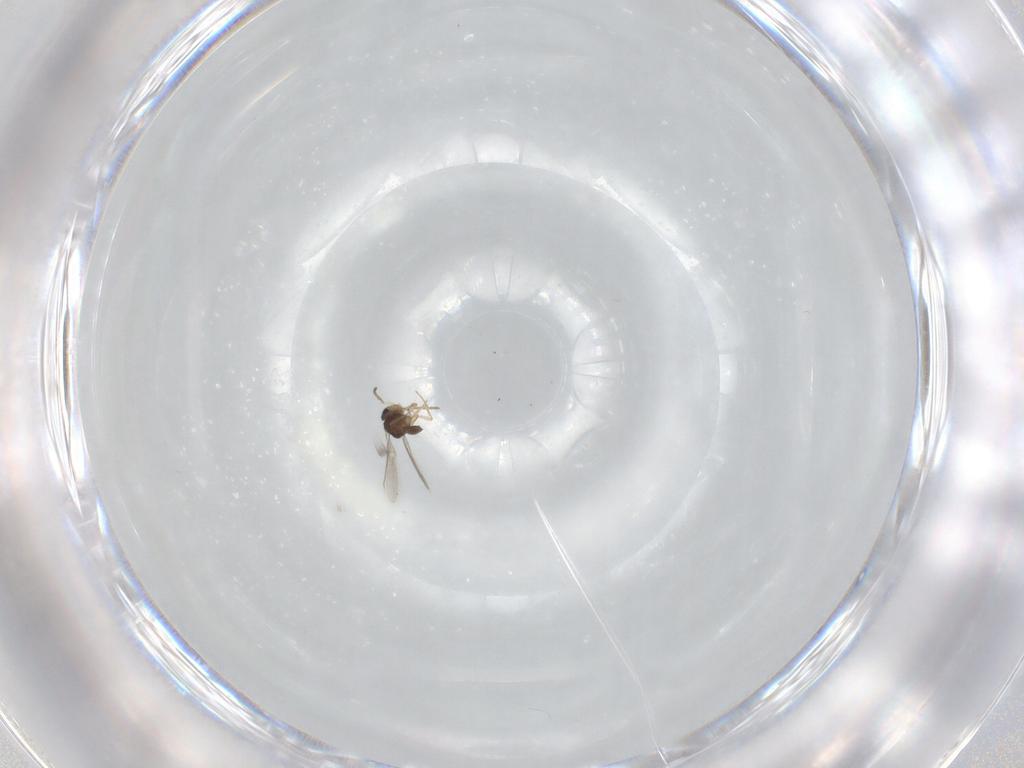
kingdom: Animalia
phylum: Arthropoda
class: Insecta
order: Hymenoptera
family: Scelionidae
